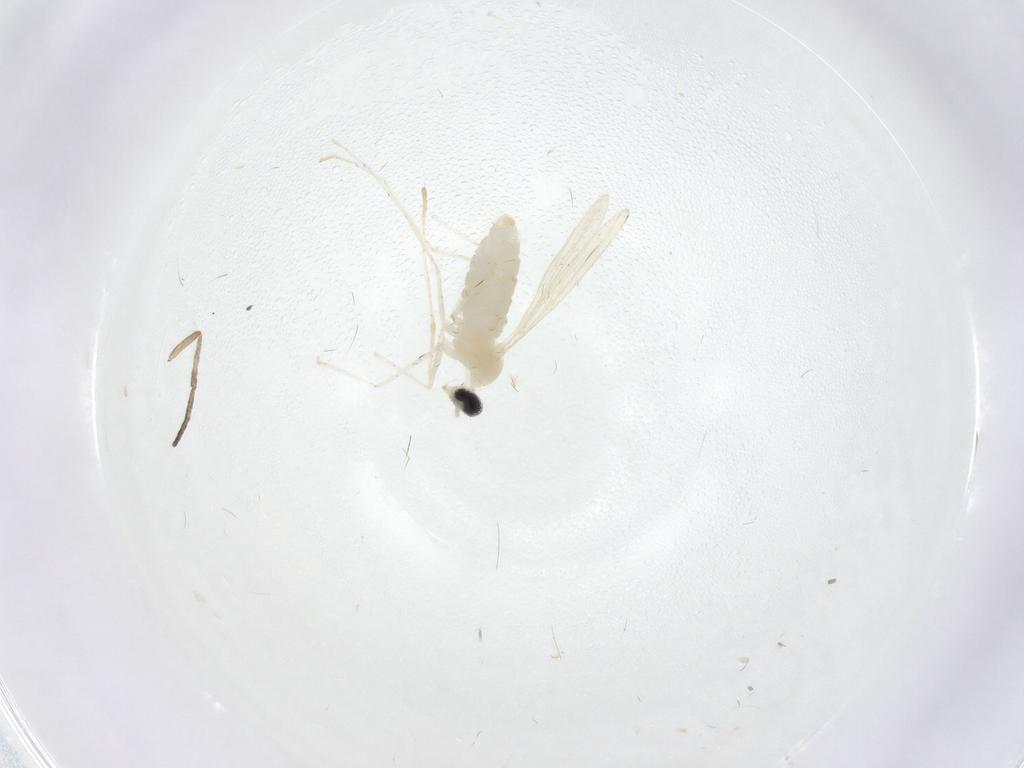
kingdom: Animalia
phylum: Arthropoda
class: Insecta
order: Diptera
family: Cecidomyiidae
